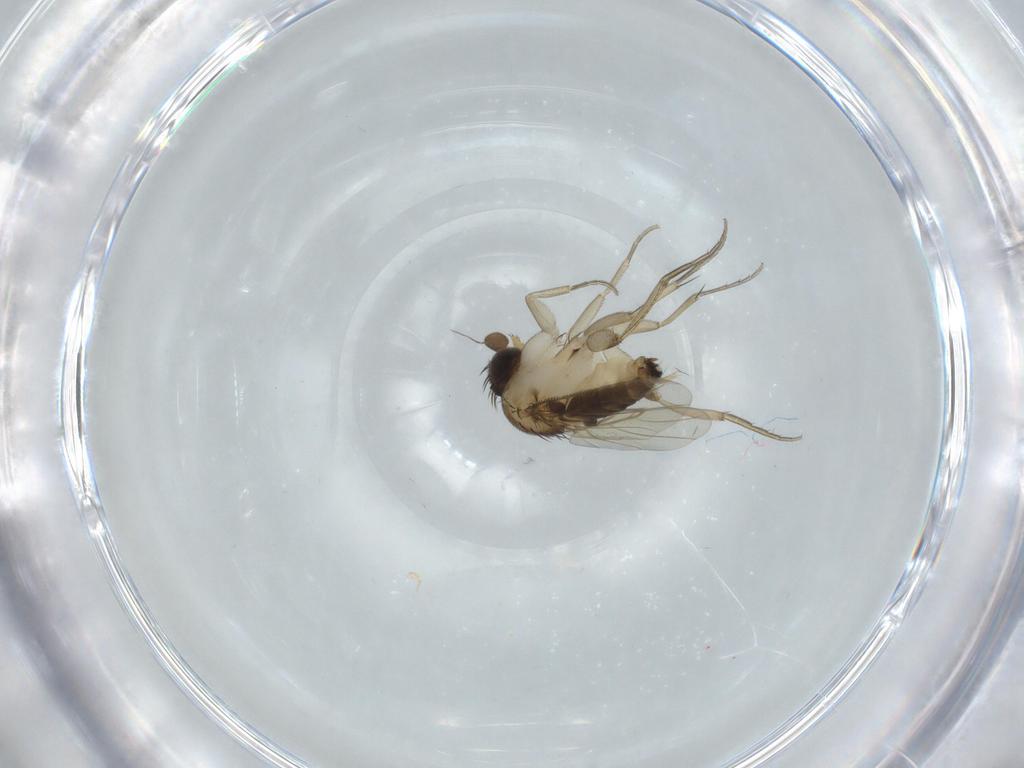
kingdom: Animalia
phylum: Arthropoda
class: Insecta
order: Diptera
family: Phoridae
